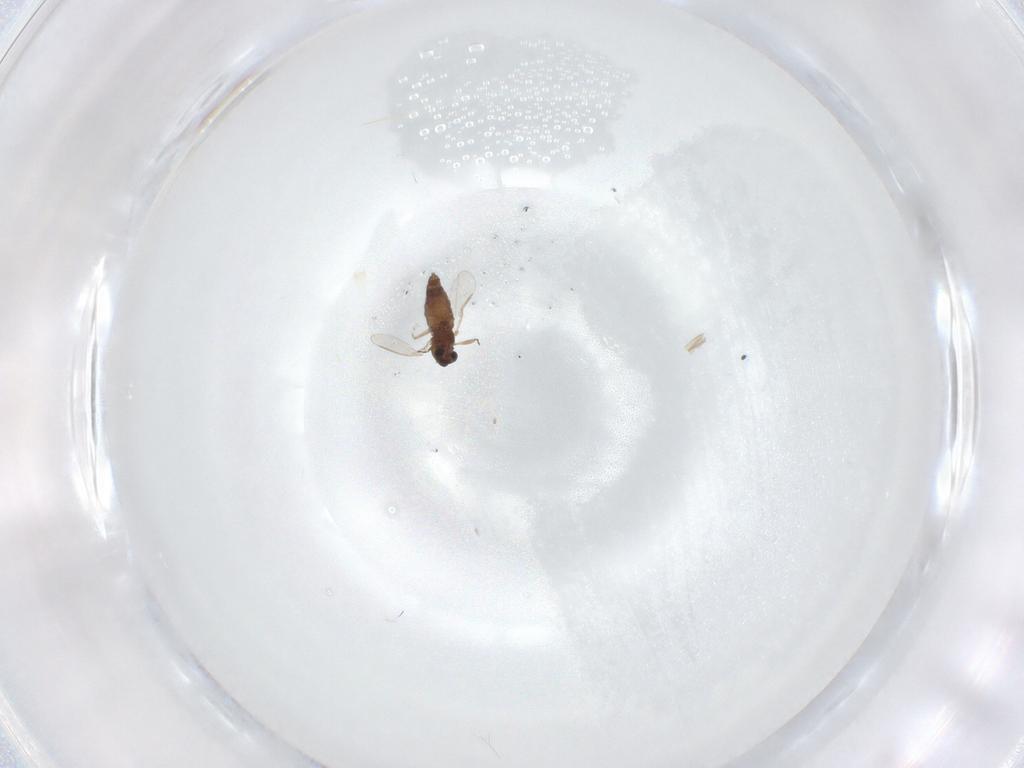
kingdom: Animalia
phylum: Arthropoda
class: Insecta
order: Diptera
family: Chironomidae
